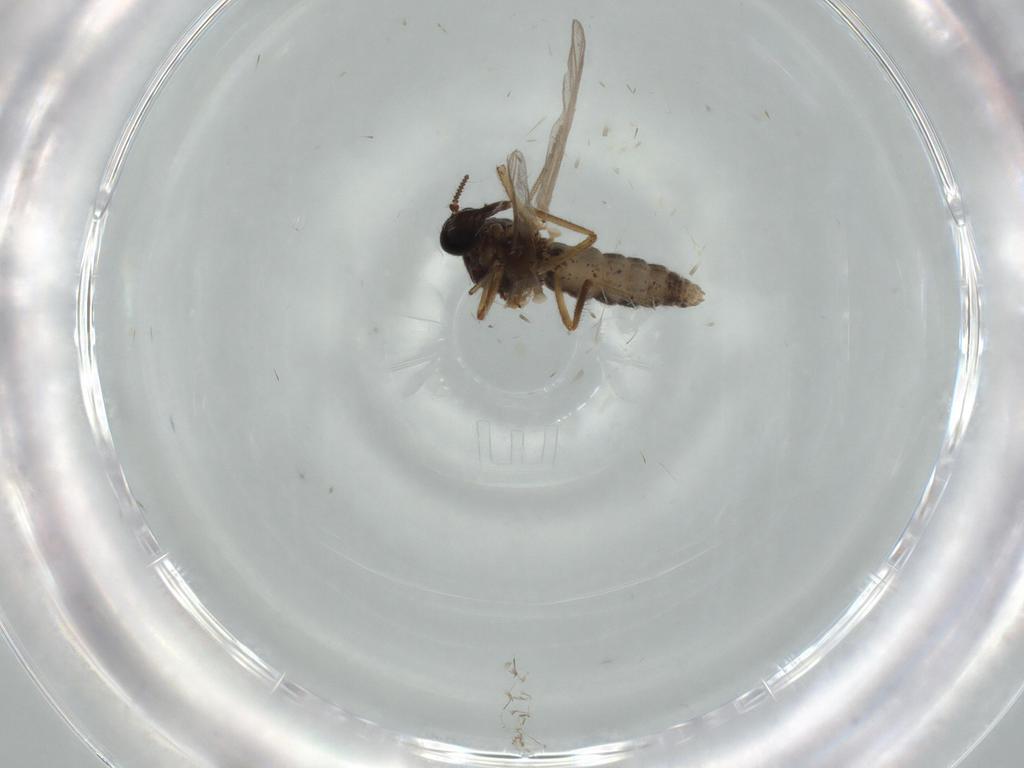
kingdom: Animalia
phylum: Arthropoda
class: Insecta
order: Diptera
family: Ceratopogonidae
